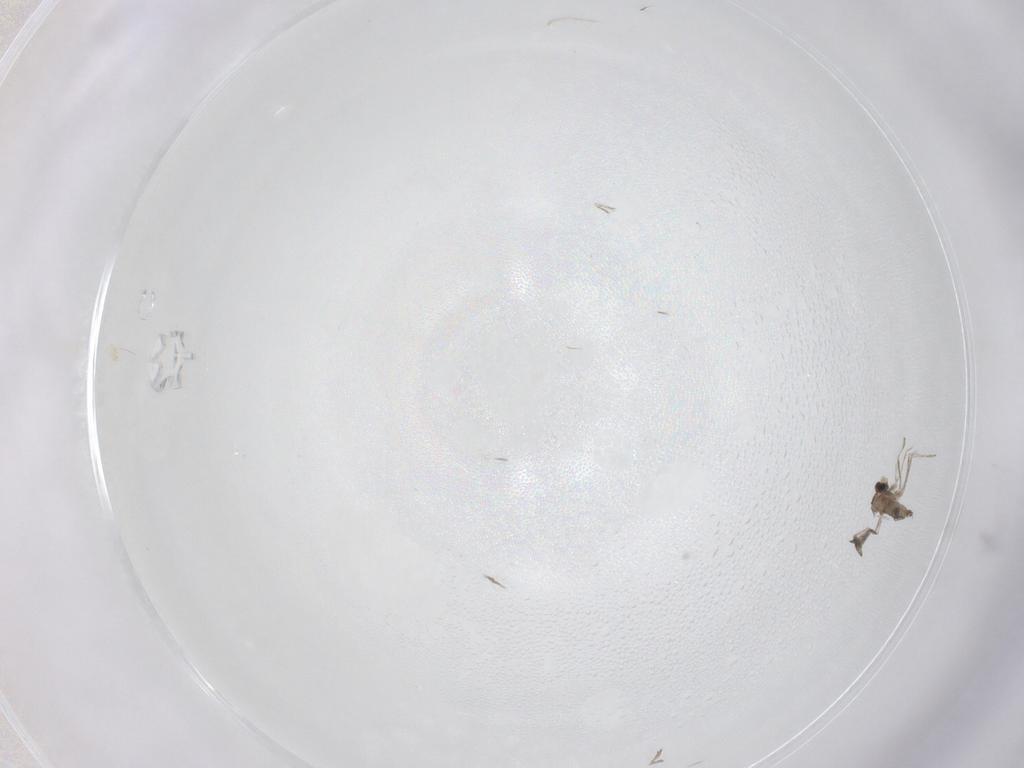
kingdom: Animalia
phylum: Arthropoda
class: Insecta
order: Diptera
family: Cecidomyiidae
